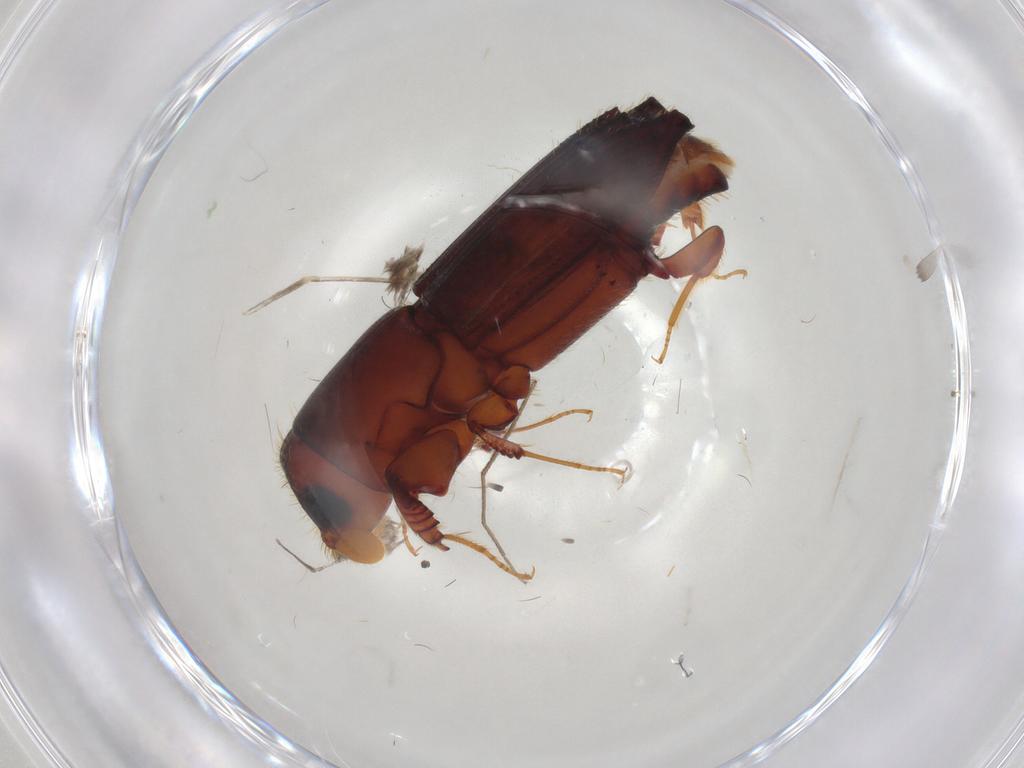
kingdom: Animalia
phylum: Arthropoda
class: Insecta
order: Coleoptera
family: Curculionidae
